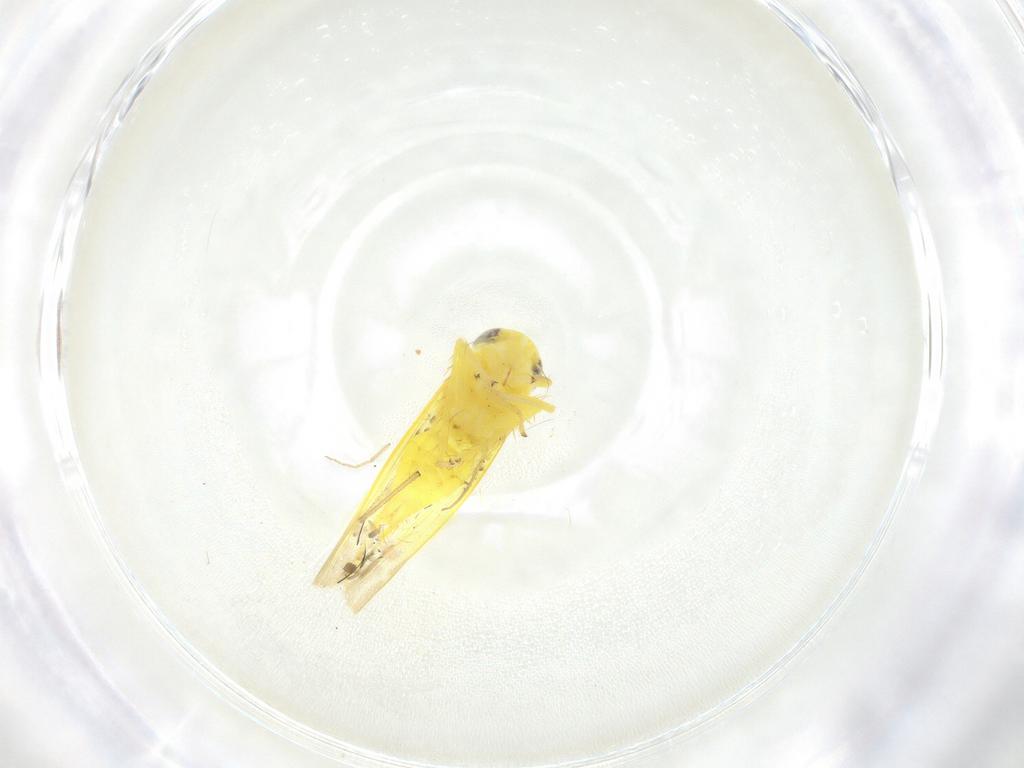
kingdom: Animalia
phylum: Arthropoda
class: Insecta
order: Hemiptera
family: Cicadellidae
